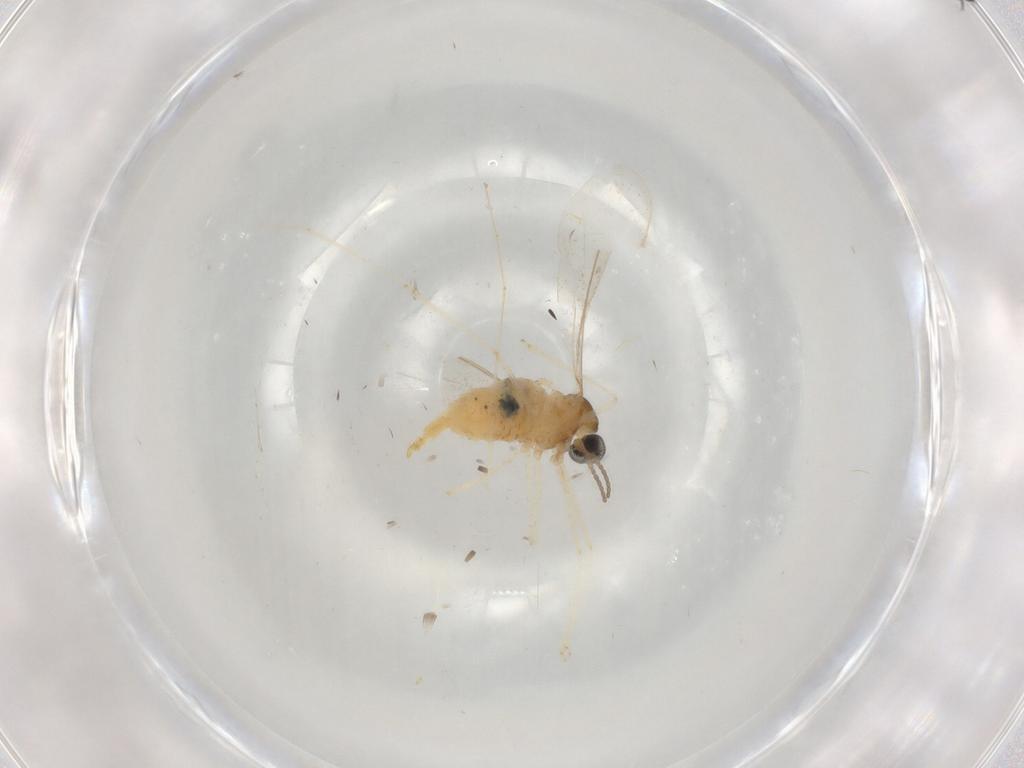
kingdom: Animalia
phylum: Arthropoda
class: Insecta
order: Diptera
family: Cecidomyiidae
